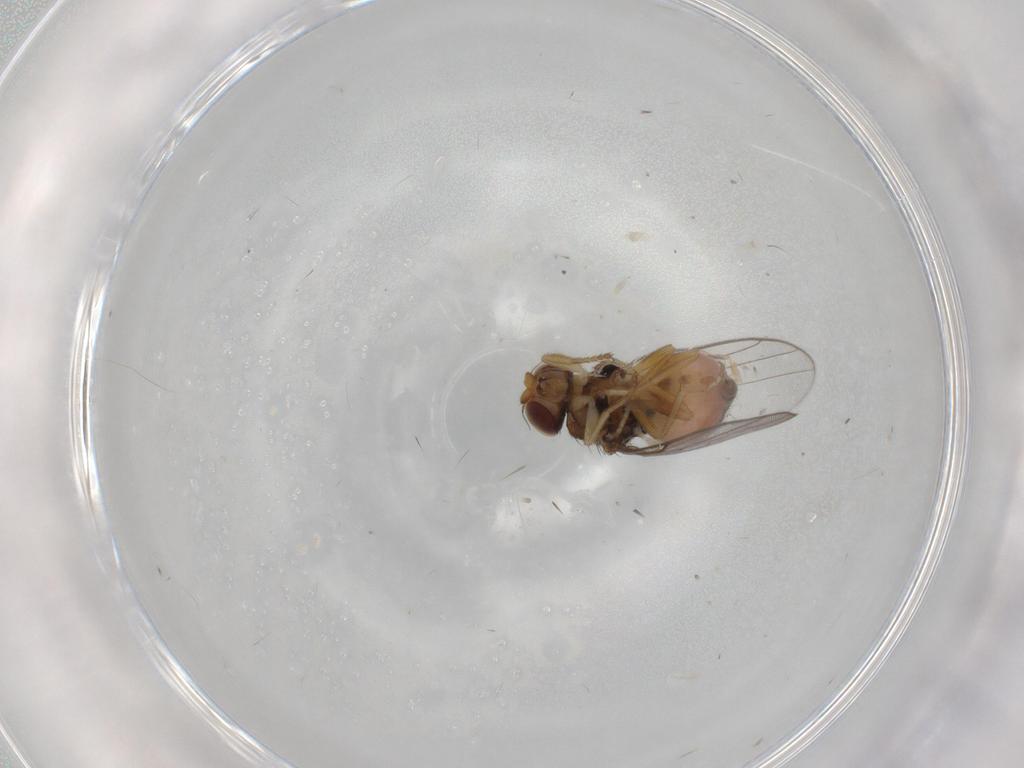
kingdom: Animalia
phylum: Arthropoda
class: Insecta
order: Diptera
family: Chloropidae
